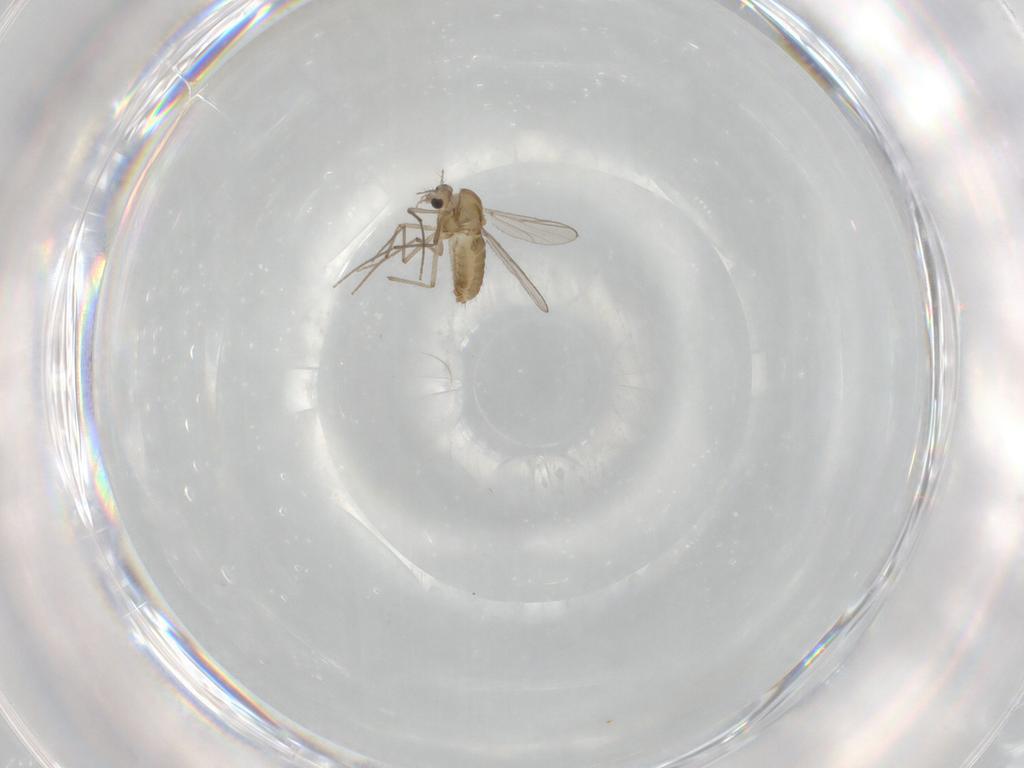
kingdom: Animalia
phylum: Arthropoda
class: Insecta
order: Diptera
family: Chironomidae
